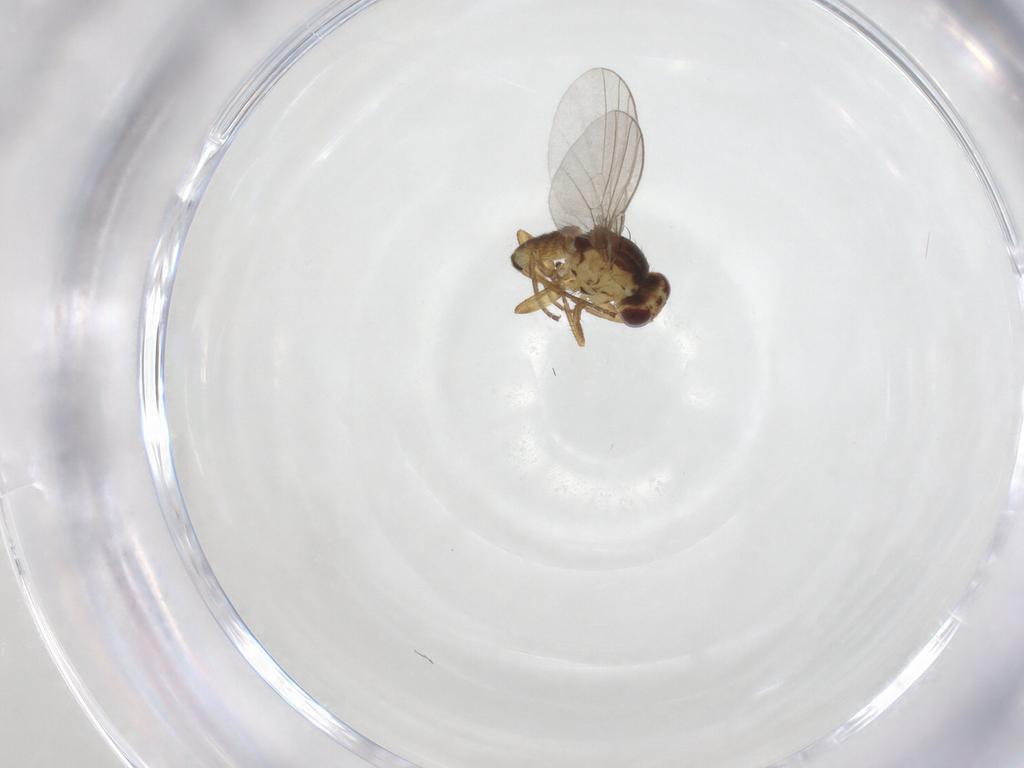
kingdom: Animalia
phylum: Arthropoda
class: Insecta
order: Diptera
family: Agromyzidae
